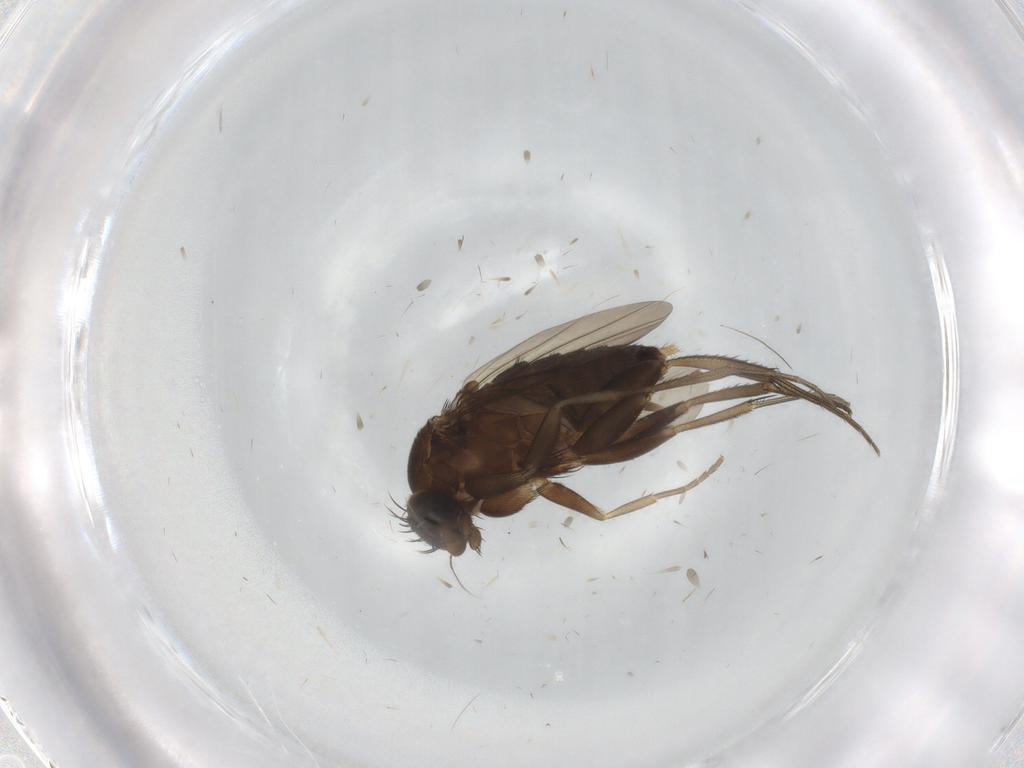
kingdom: Animalia
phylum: Arthropoda
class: Insecta
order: Diptera
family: Phoridae
